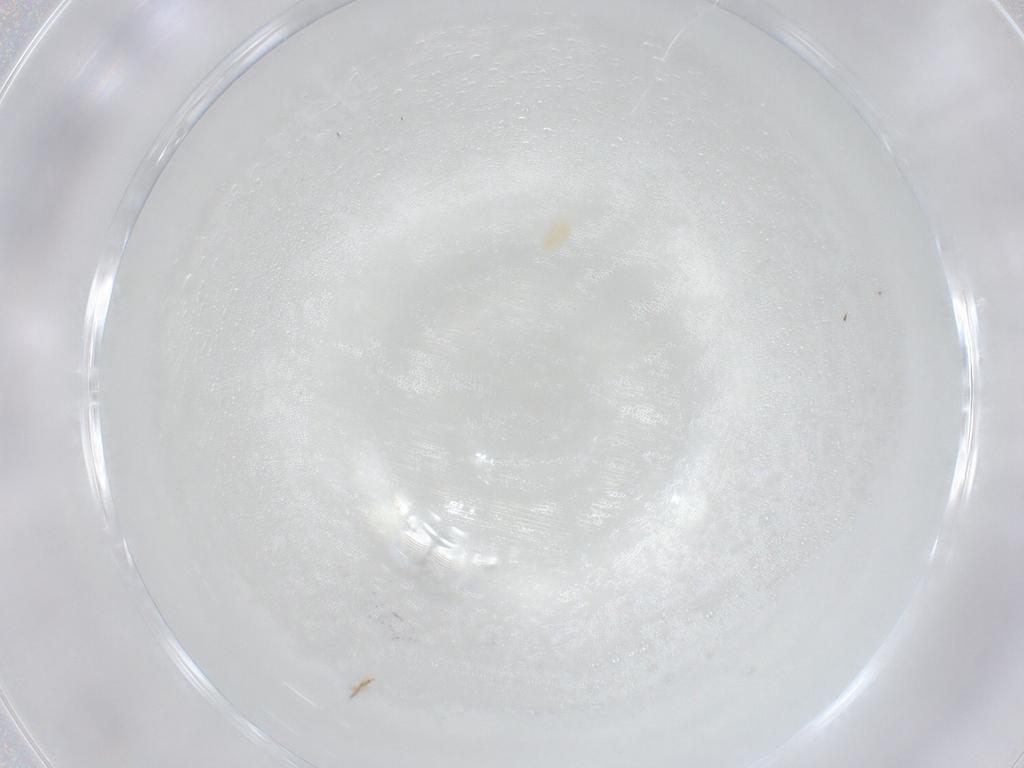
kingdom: Animalia
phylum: Arthropoda
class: Arachnida
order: Trombidiformes
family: Eupodidae
